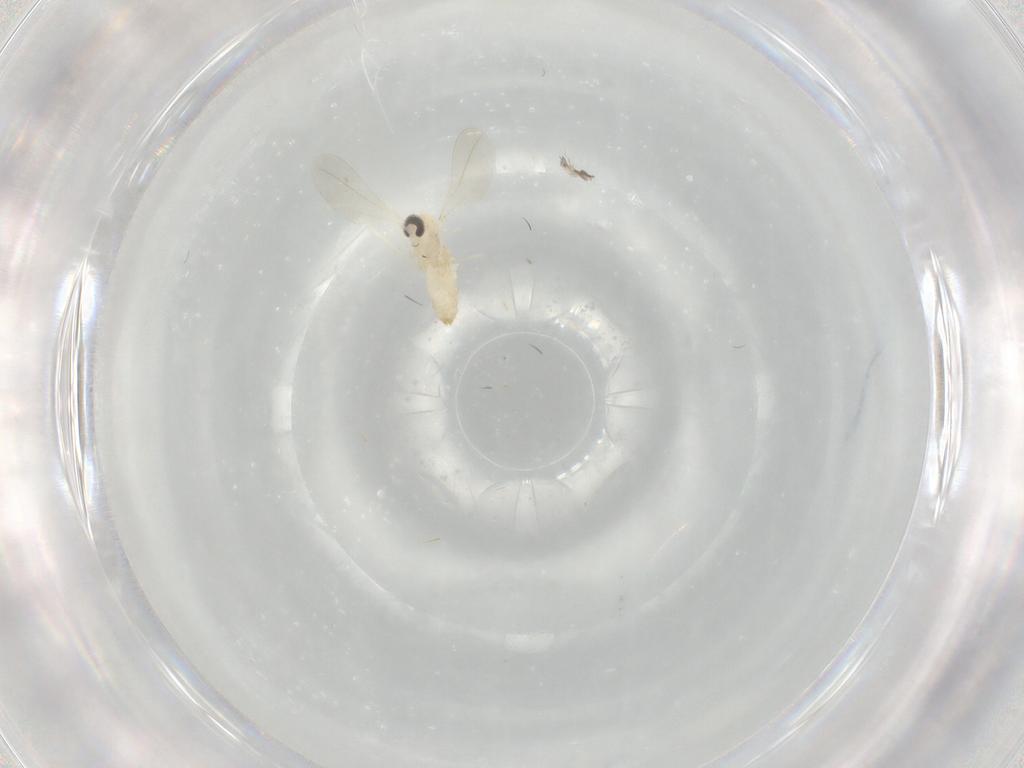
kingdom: Animalia
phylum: Arthropoda
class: Insecta
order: Diptera
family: Cecidomyiidae
